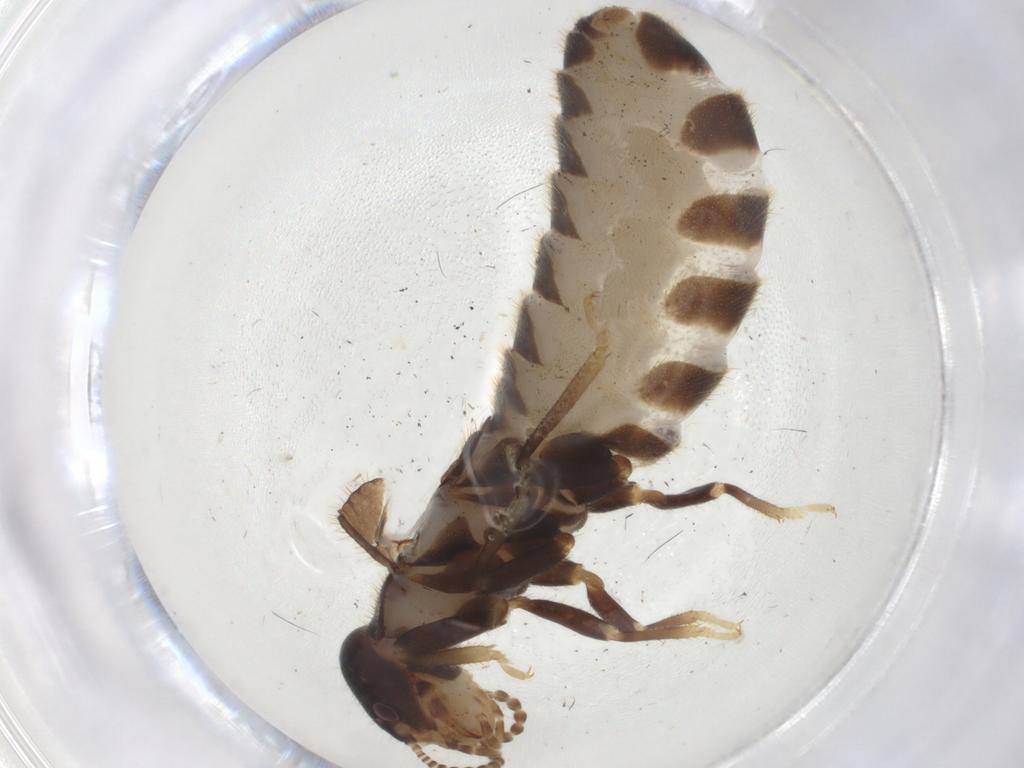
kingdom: Animalia
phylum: Arthropoda
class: Insecta
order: Blattodea
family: Rhinotermitidae
